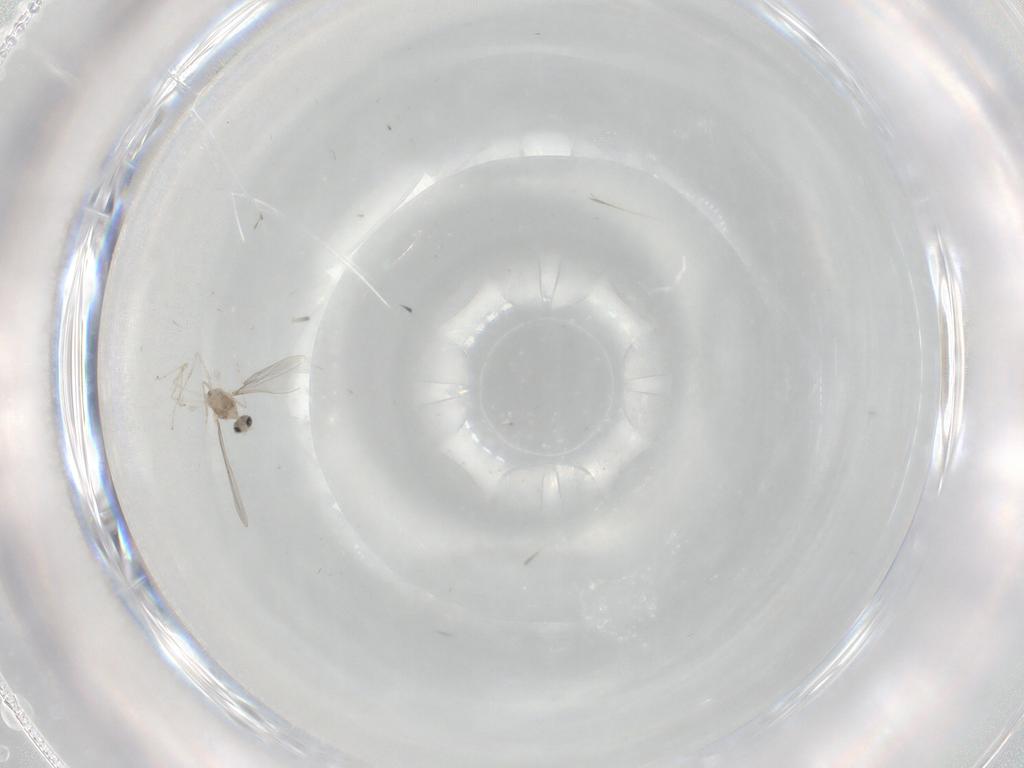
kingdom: Animalia
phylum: Arthropoda
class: Insecta
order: Diptera
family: Chironomidae
